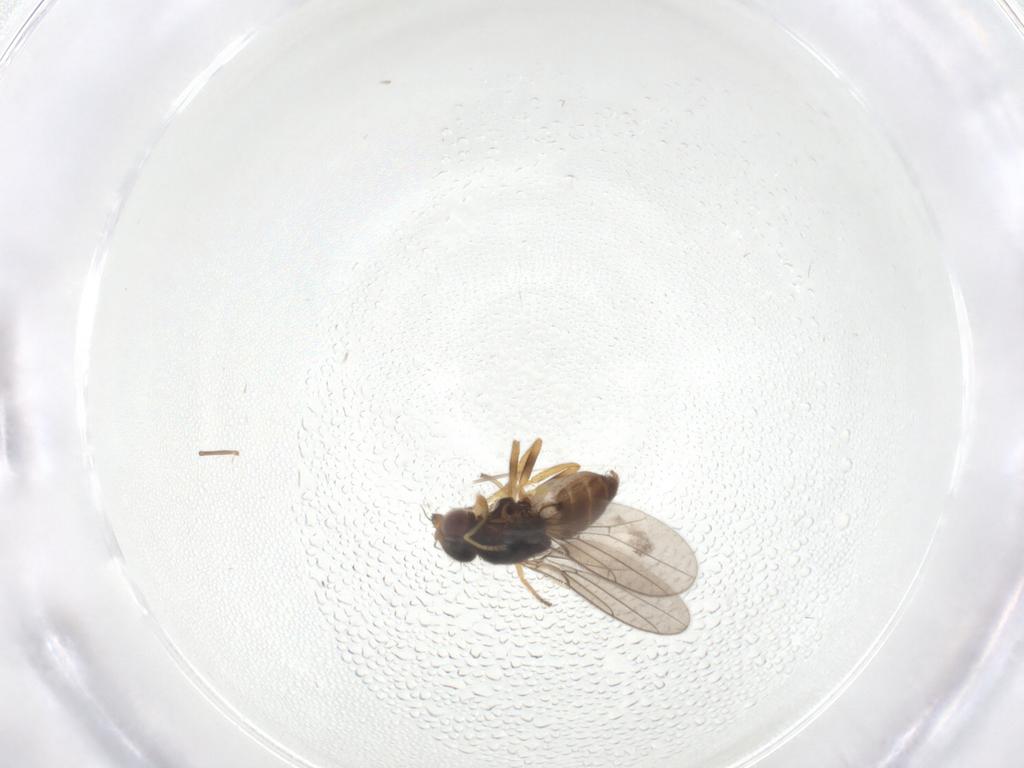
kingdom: Animalia
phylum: Arthropoda
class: Insecta
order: Diptera
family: Chloropidae
